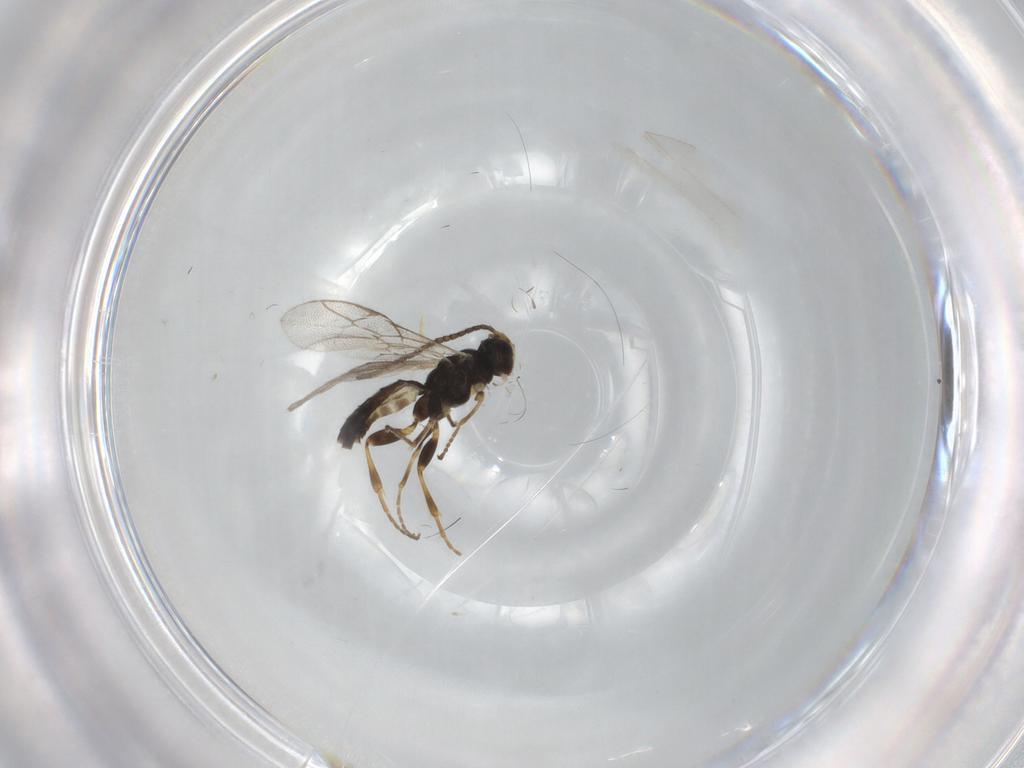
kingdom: Animalia
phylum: Arthropoda
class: Insecta
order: Hymenoptera
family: Ichneumonidae
